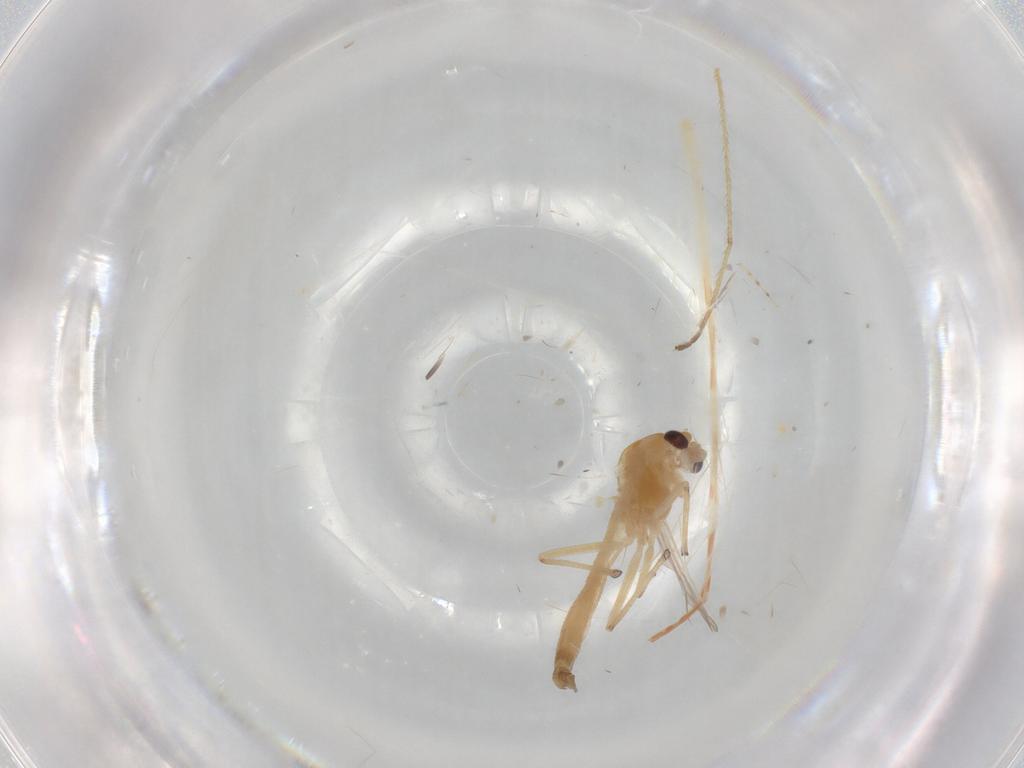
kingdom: Animalia
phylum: Arthropoda
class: Insecta
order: Diptera
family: Chironomidae
